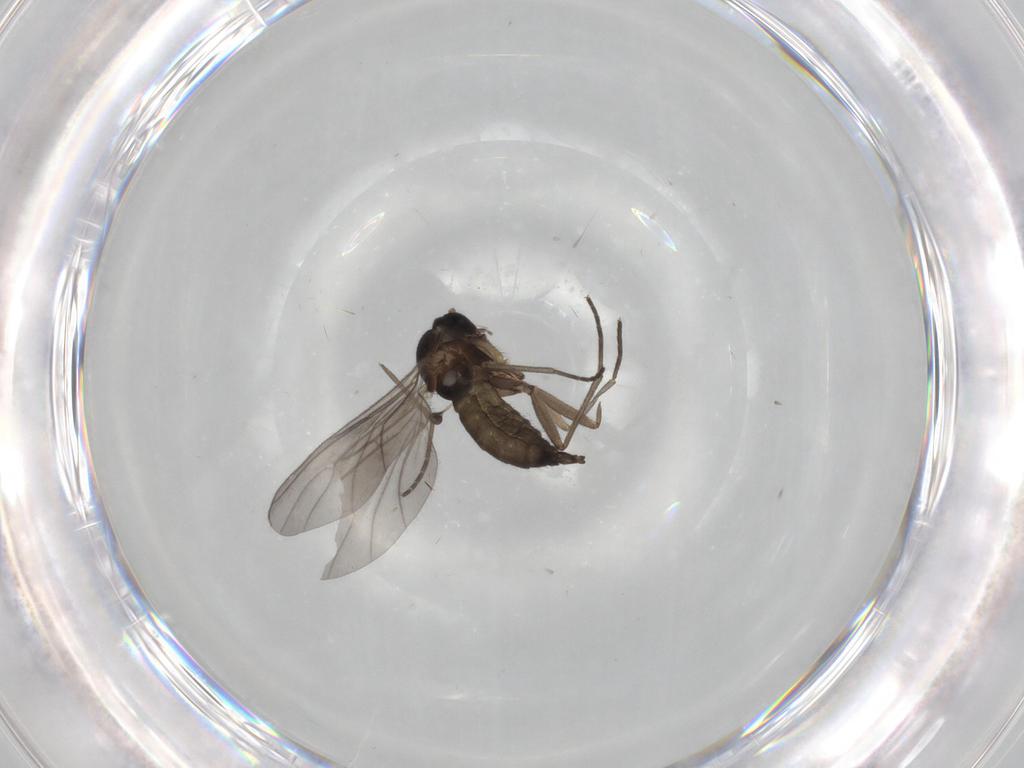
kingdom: Animalia
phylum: Arthropoda
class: Insecta
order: Diptera
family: Sciaridae
